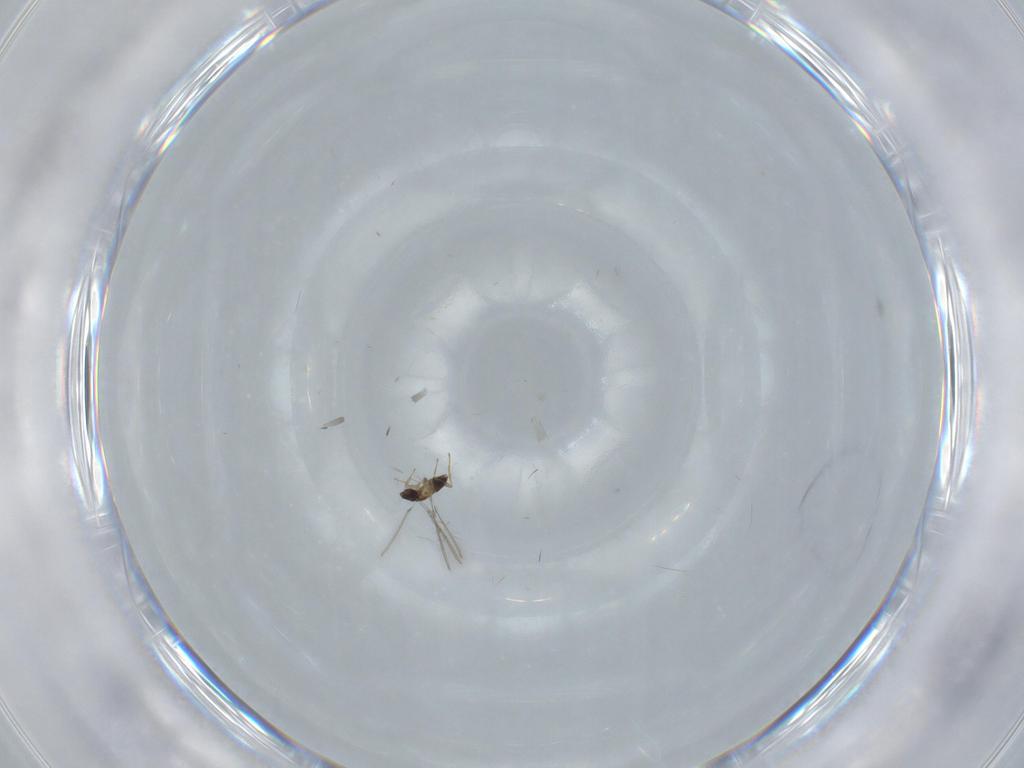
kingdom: Animalia
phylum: Arthropoda
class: Insecta
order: Hymenoptera
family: Mymaridae
